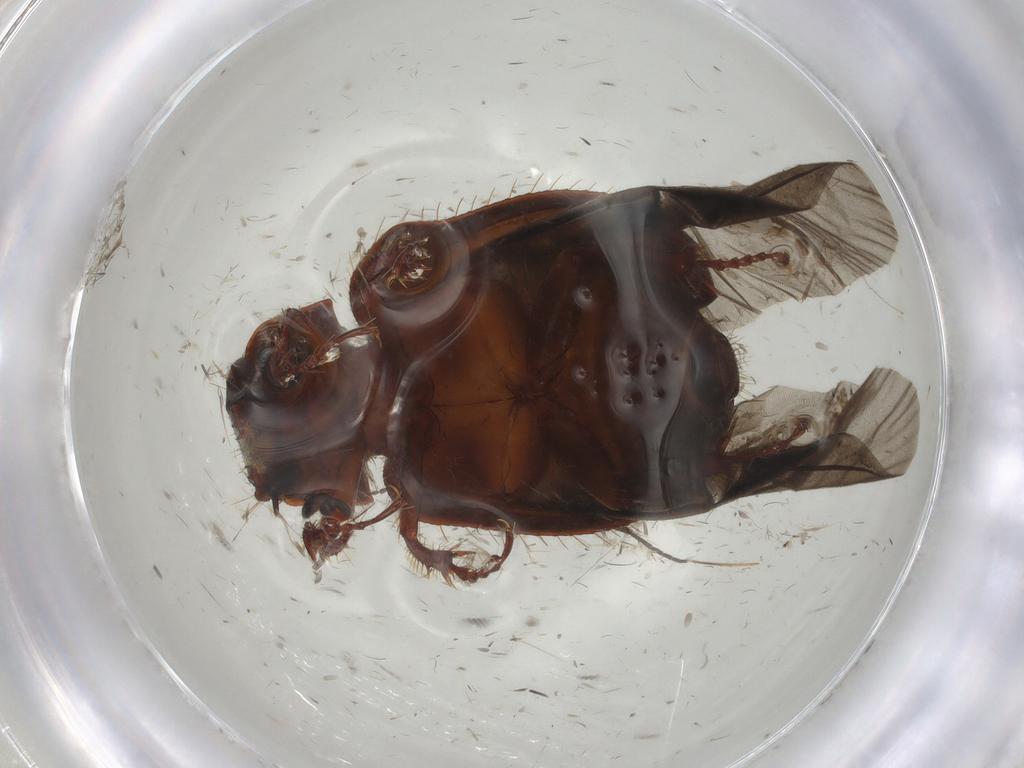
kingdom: Animalia
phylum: Arthropoda
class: Insecta
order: Coleoptera
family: Hybosoridae
